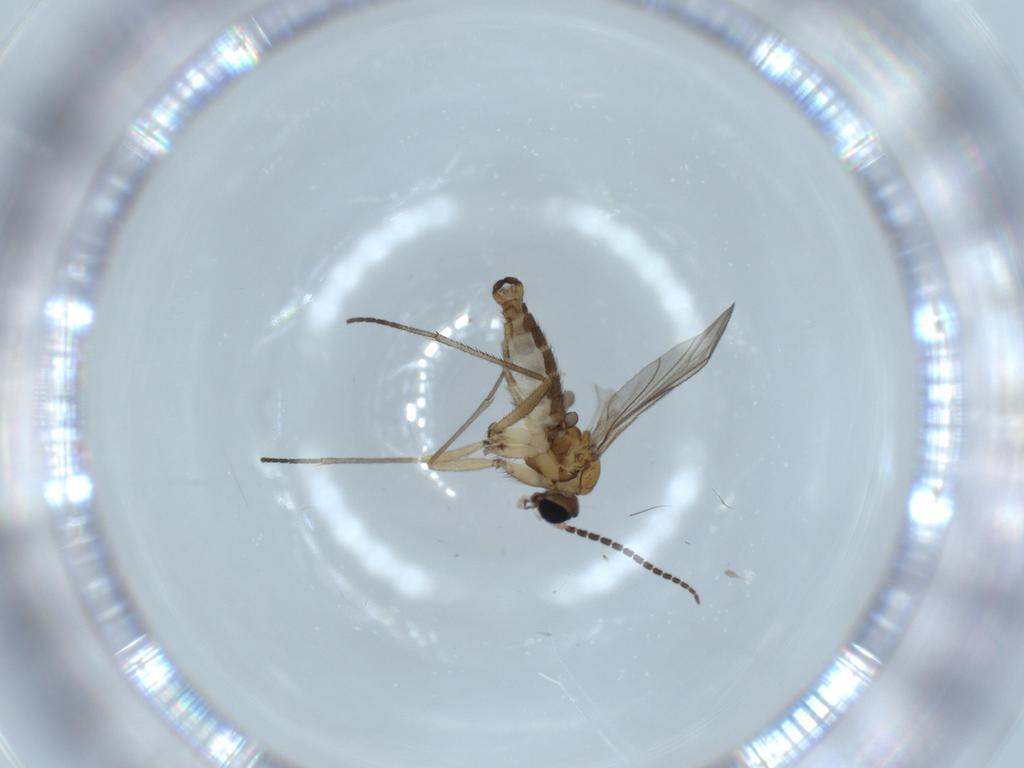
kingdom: Animalia
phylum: Arthropoda
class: Insecta
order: Diptera
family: Sciaridae
